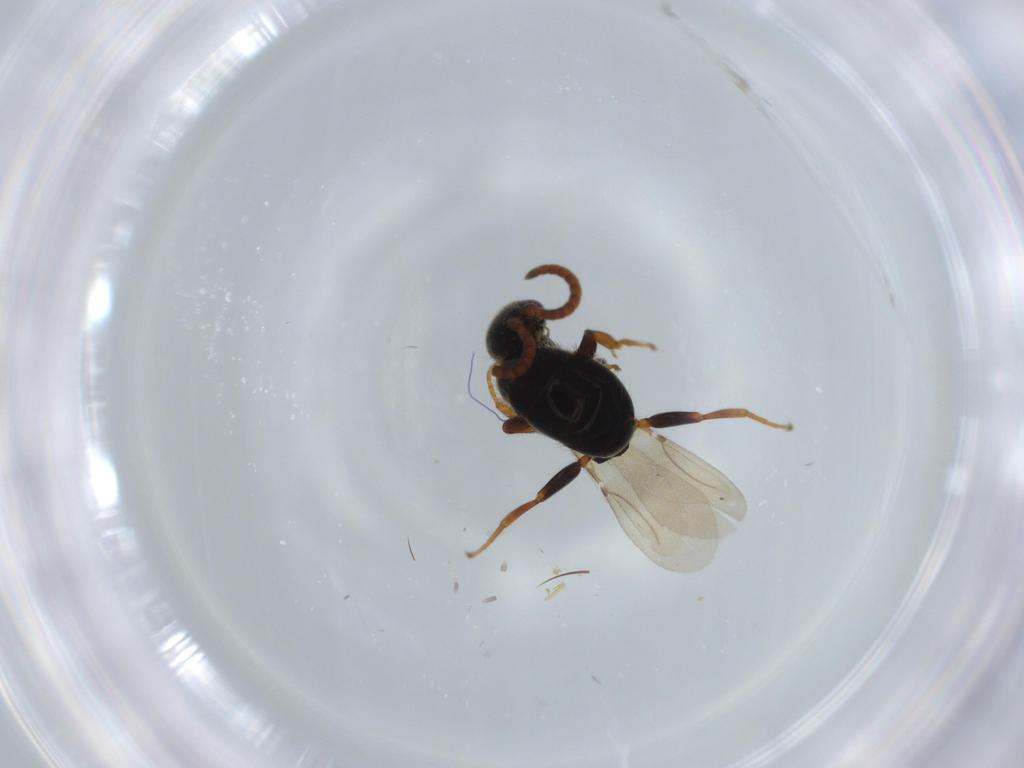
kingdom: Animalia
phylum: Arthropoda
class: Insecta
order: Hymenoptera
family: Bethylidae
